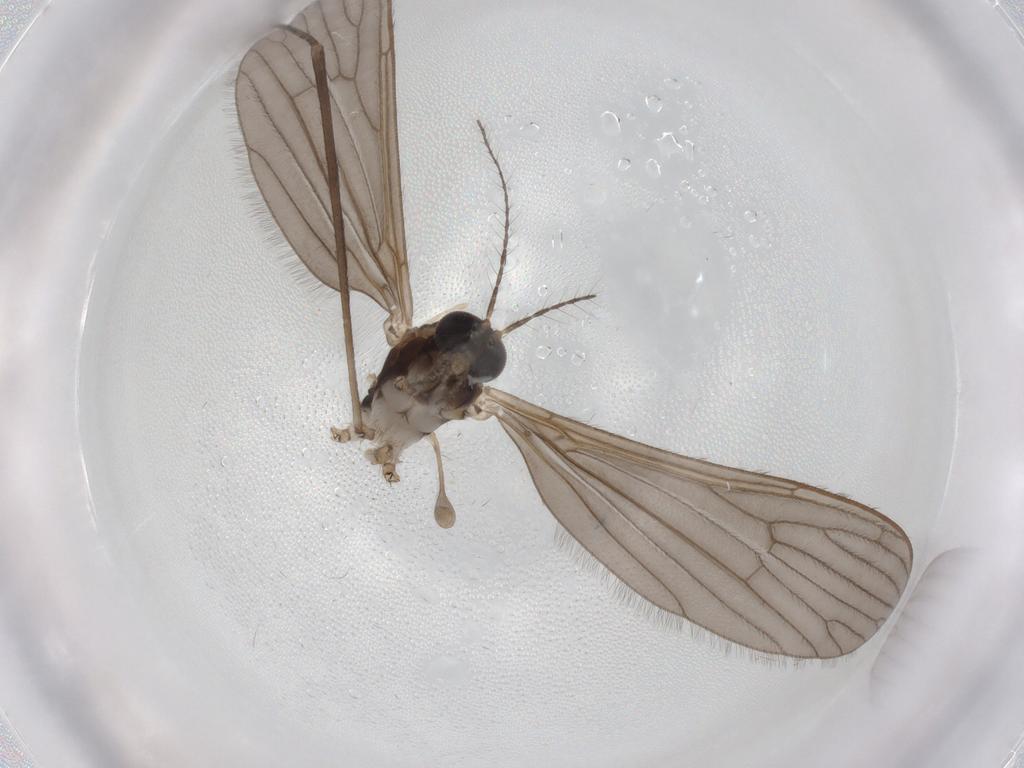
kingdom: Animalia
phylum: Arthropoda
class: Insecta
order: Diptera
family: Limoniidae
